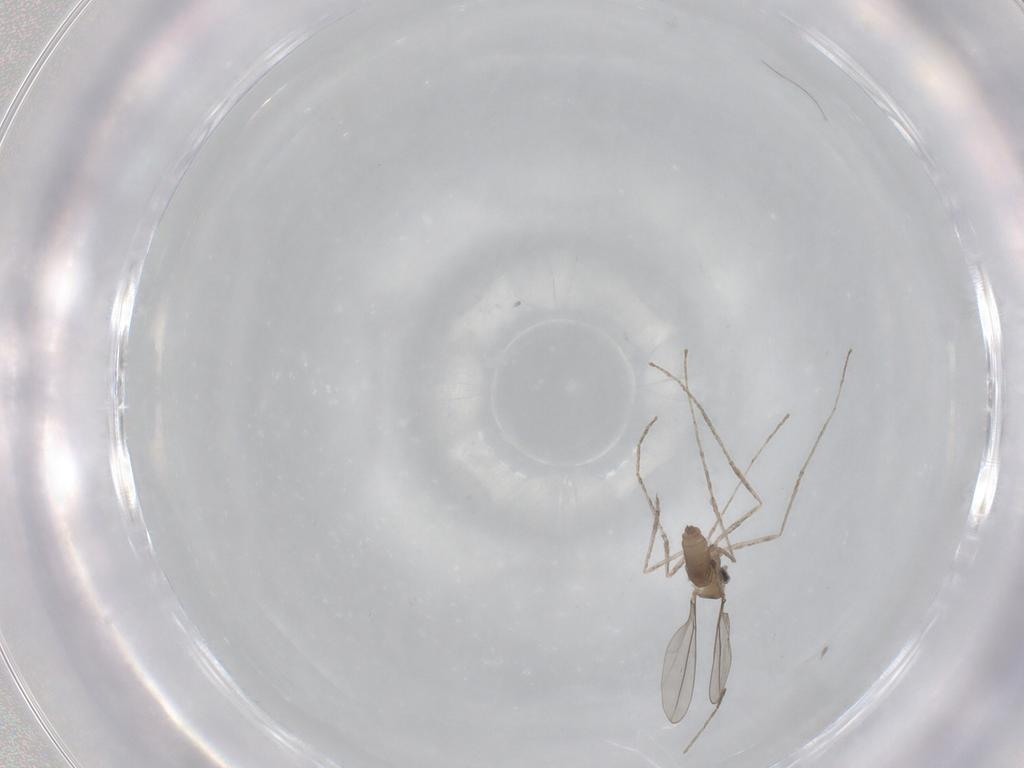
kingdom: Animalia
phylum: Arthropoda
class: Insecta
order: Diptera
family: Cecidomyiidae
